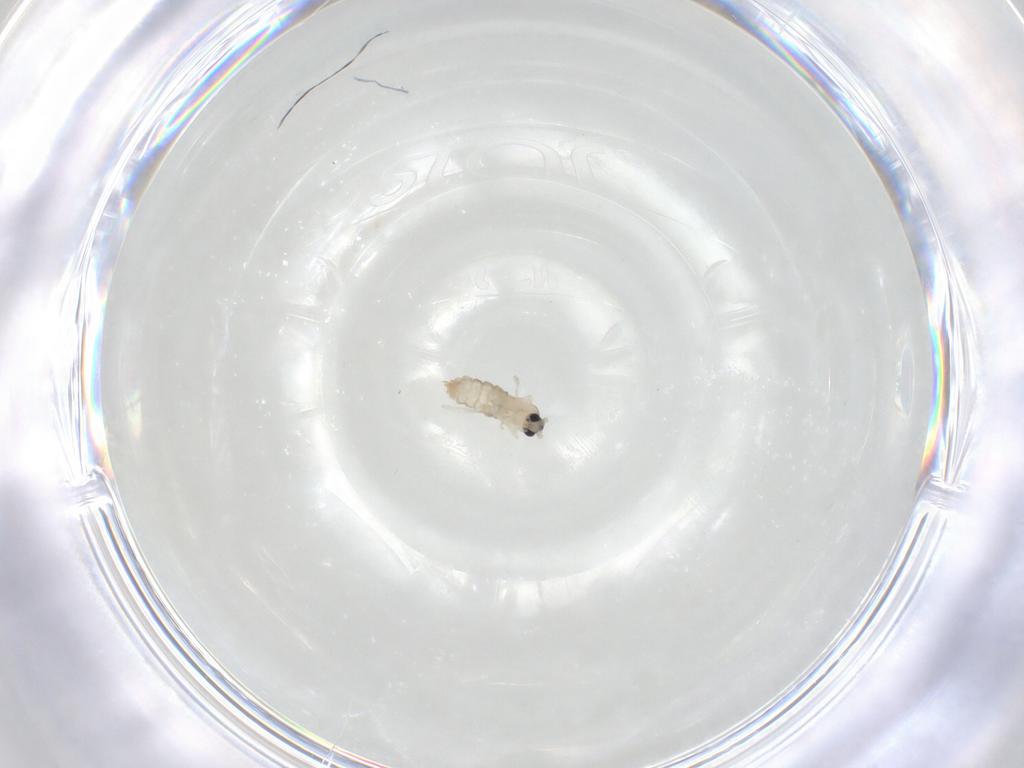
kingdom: Animalia
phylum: Arthropoda
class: Insecta
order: Diptera
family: Cecidomyiidae
